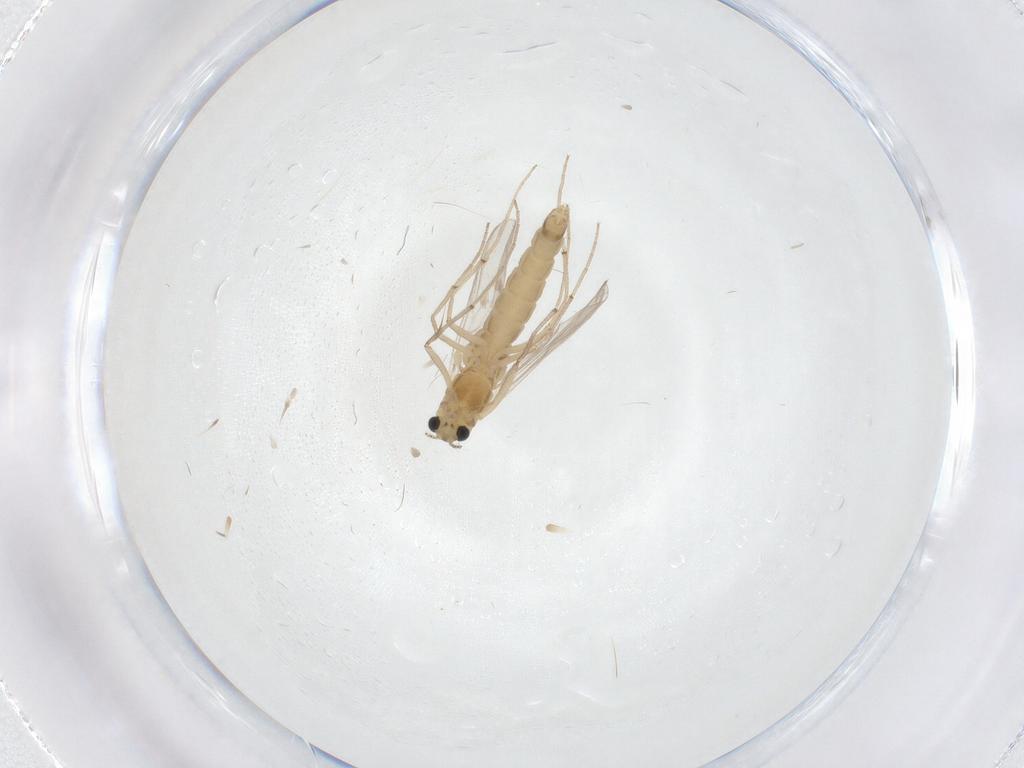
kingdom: Animalia
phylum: Arthropoda
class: Insecta
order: Diptera
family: Chironomidae
